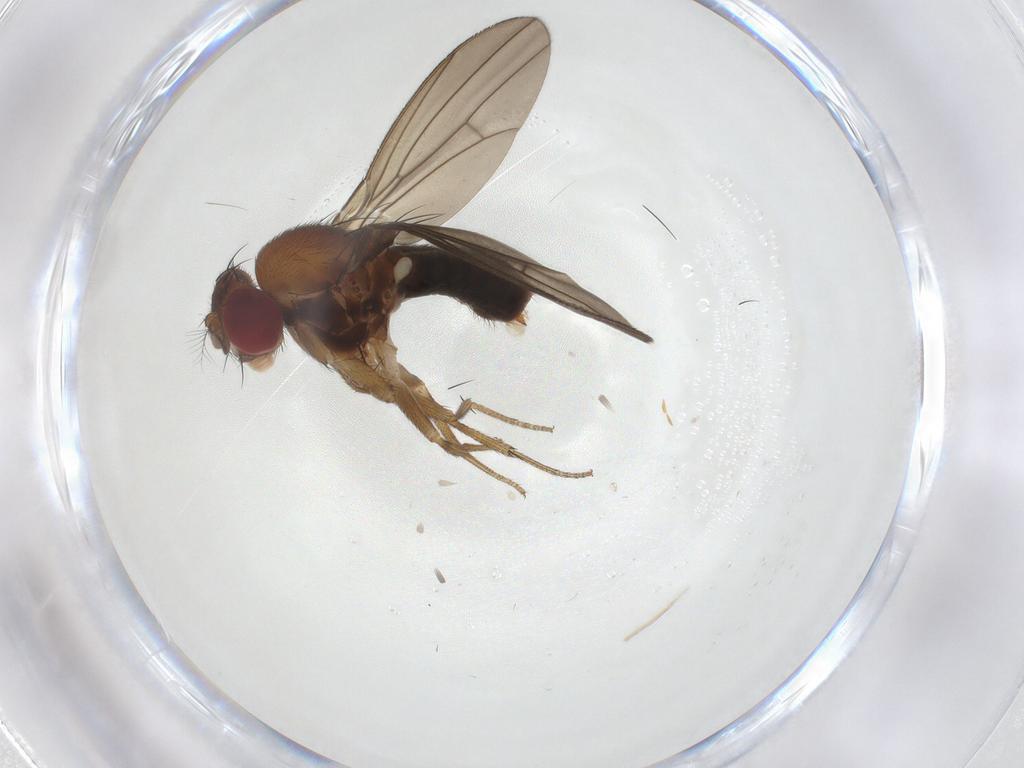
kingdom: Animalia
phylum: Arthropoda
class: Insecta
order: Diptera
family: Drosophilidae
